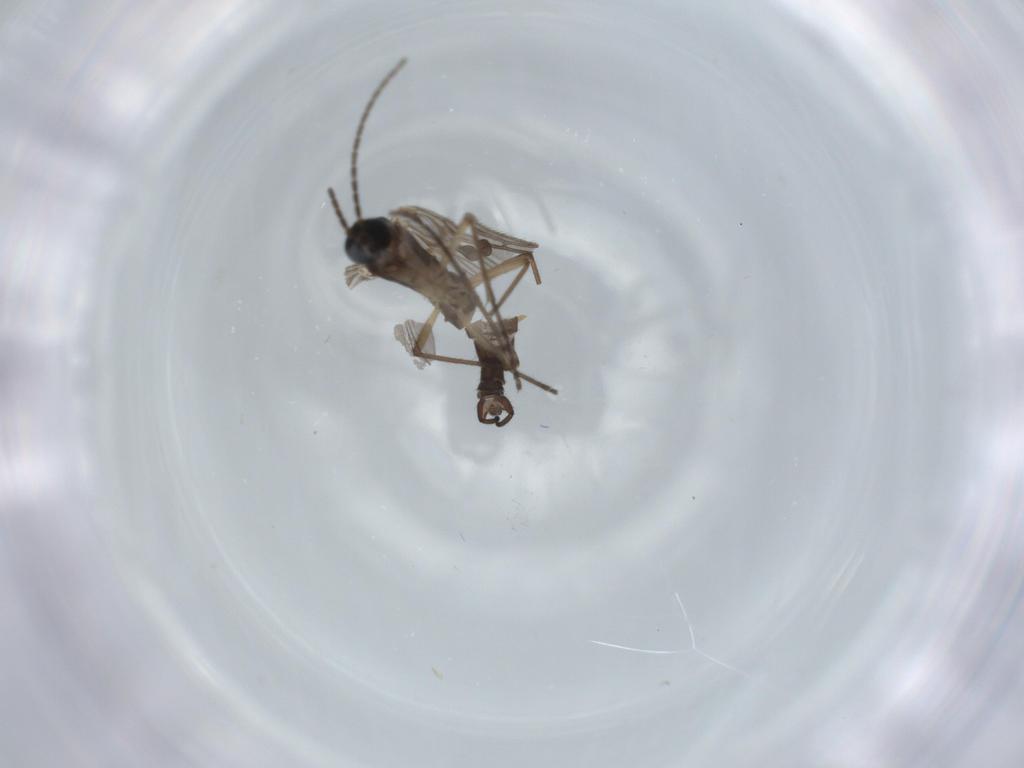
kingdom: Animalia
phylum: Arthropoda
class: Insecta
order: Diptera
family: Sciaridae
